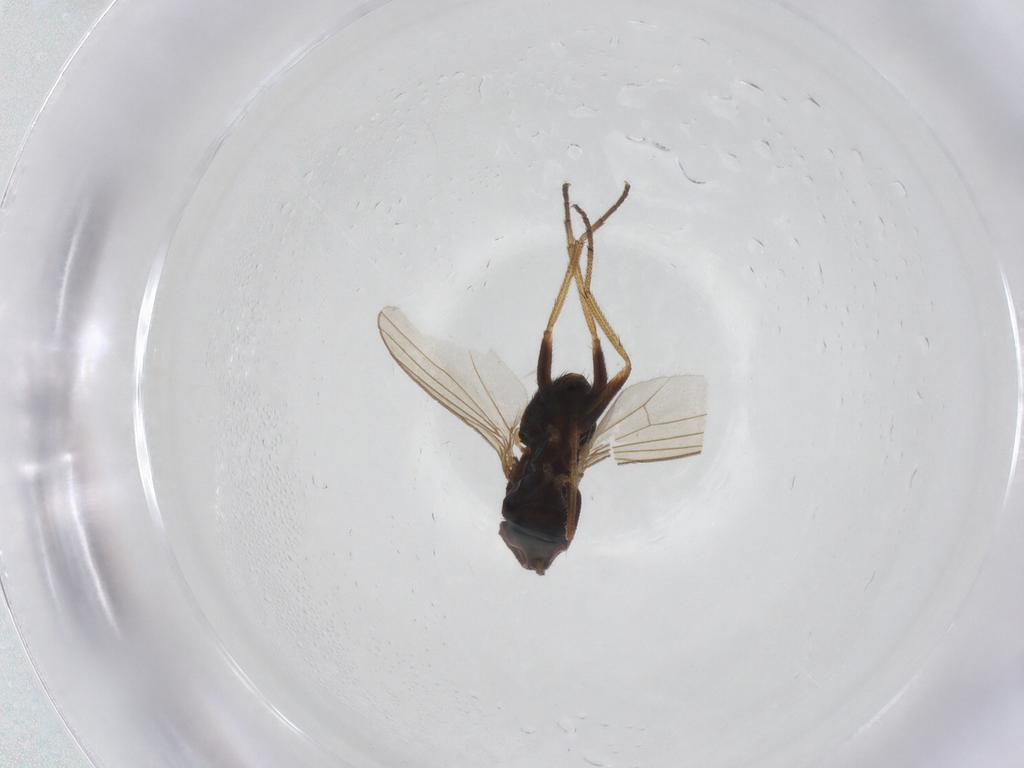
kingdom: Animalia
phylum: Arthropoda
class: Insecta
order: Diptera
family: Dolichopodidae
